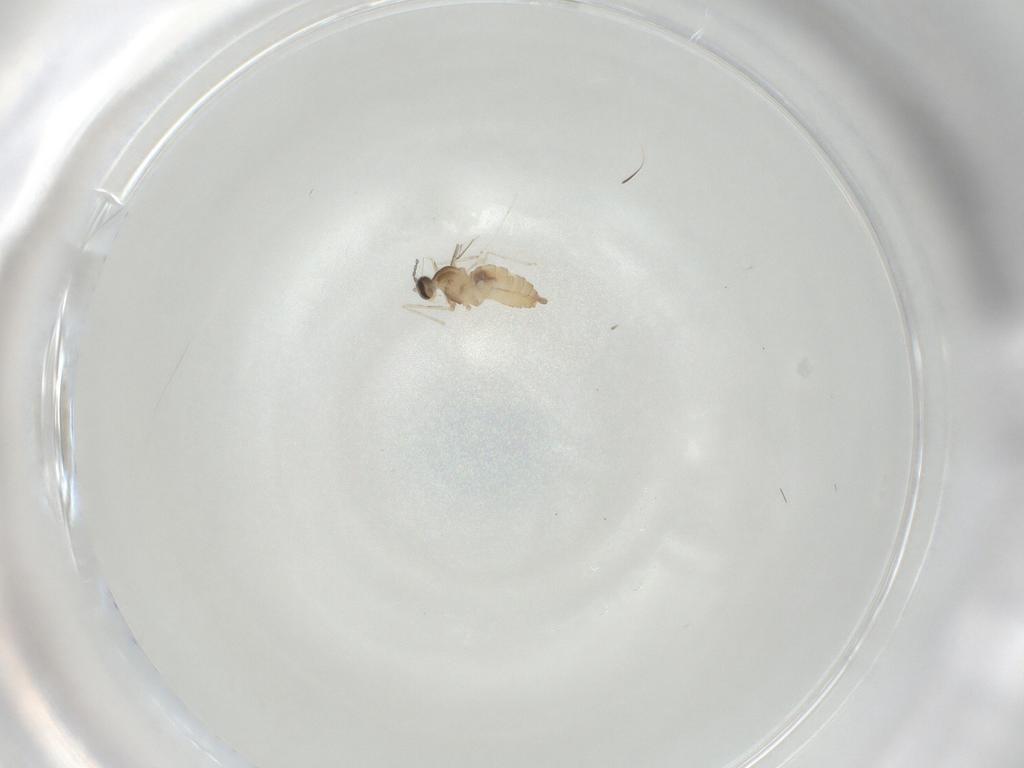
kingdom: Animalia
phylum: Arthropoda
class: Insecta
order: Diptera
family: Cecidomyiidae
